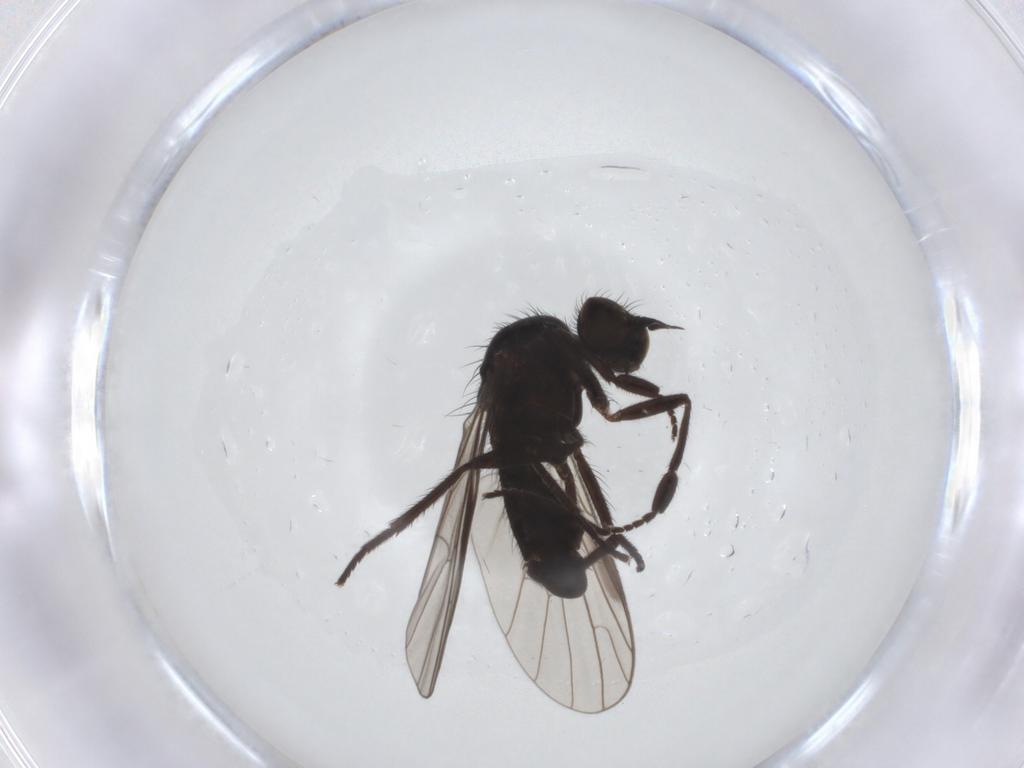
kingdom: Animalia
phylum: Arthropoda
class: Insecta
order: Diptera
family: Empididae
